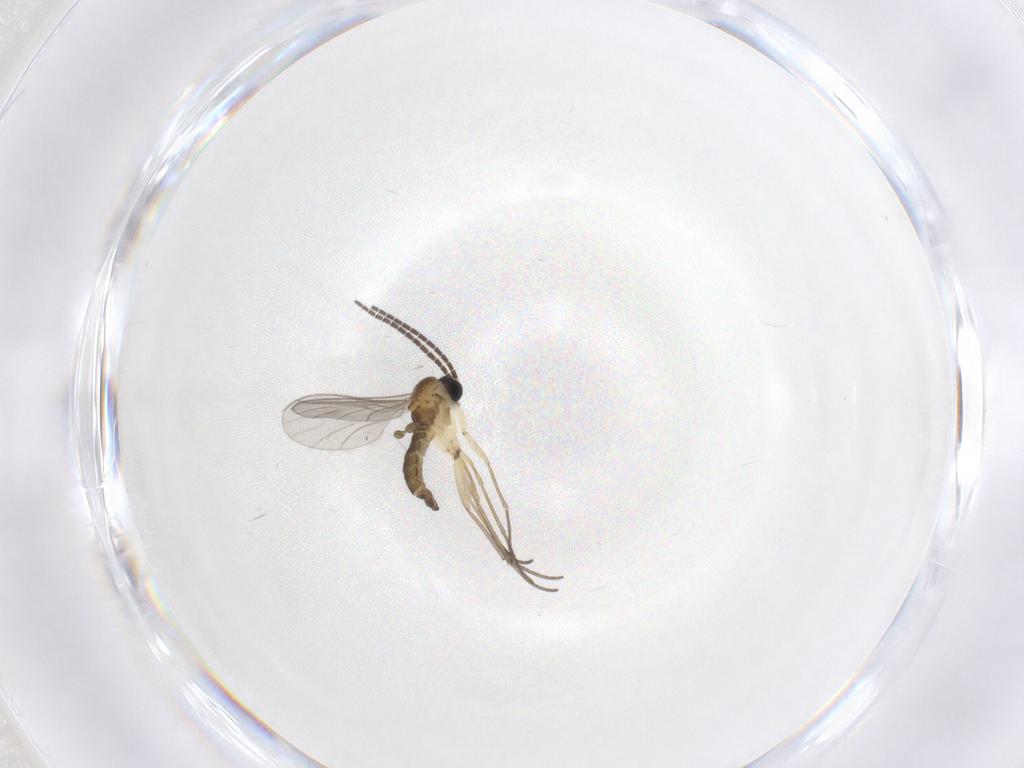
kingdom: Animalia
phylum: Arthropoda
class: Insecta
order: Diptera
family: Sciaridae
